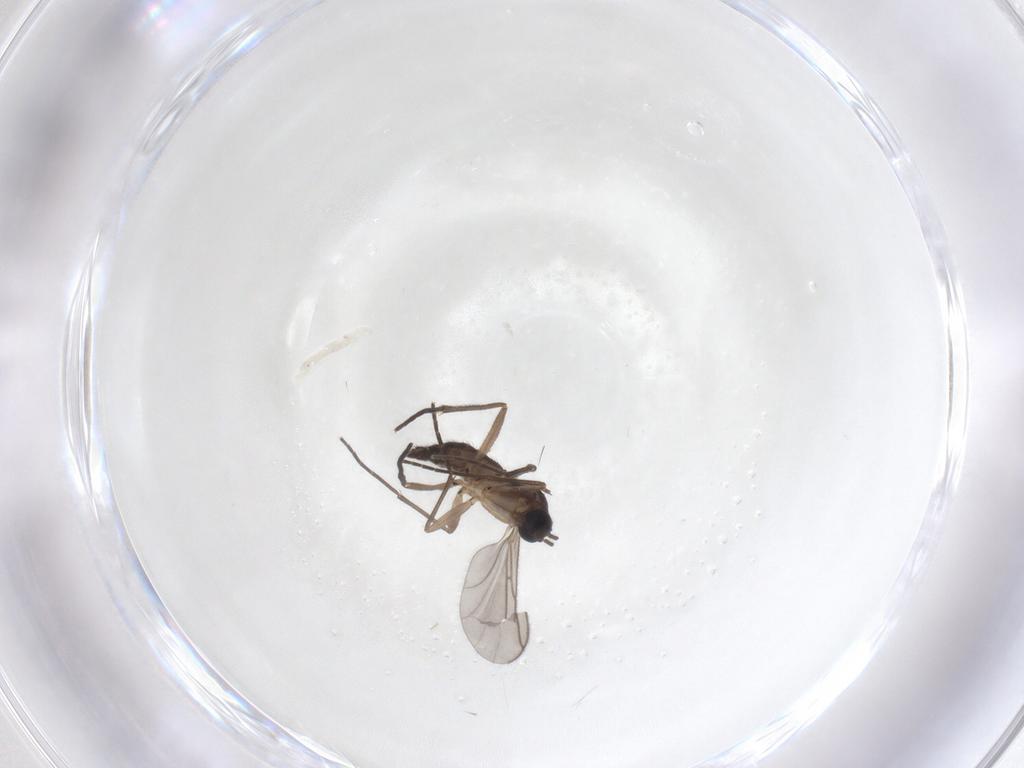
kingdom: Animalia
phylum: Arthropoda
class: Insecta
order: Diptera
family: Sciaridae
